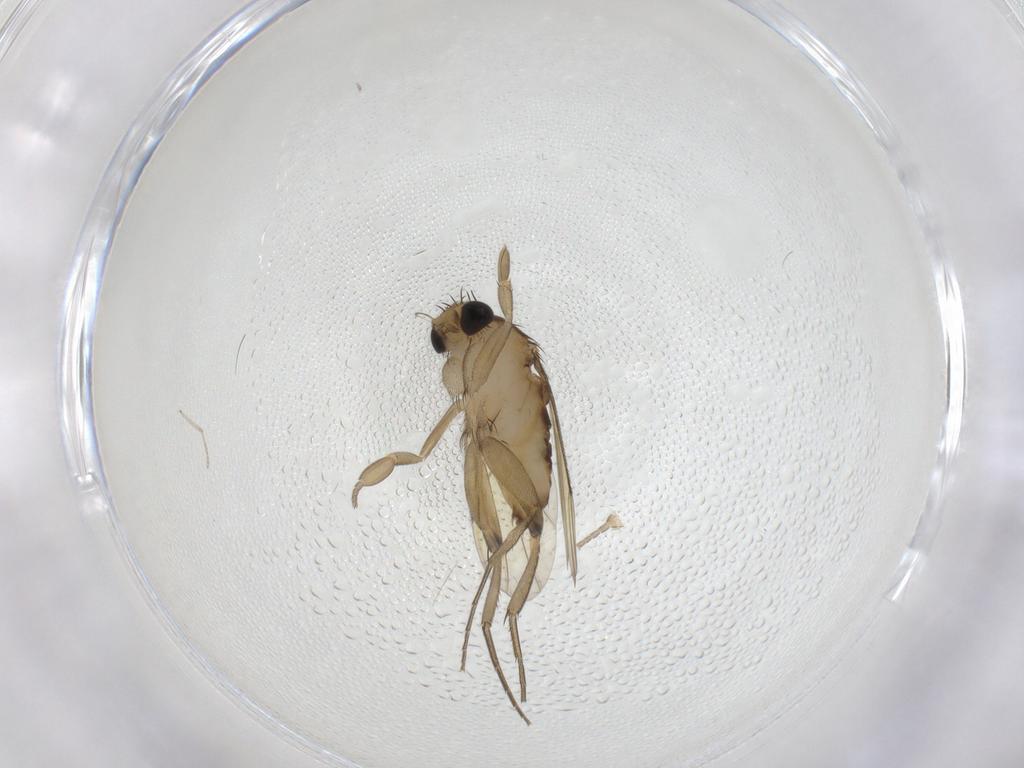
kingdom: Animalia
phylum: Arthropoda
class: Insecta
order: Diptera
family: Phoridae
